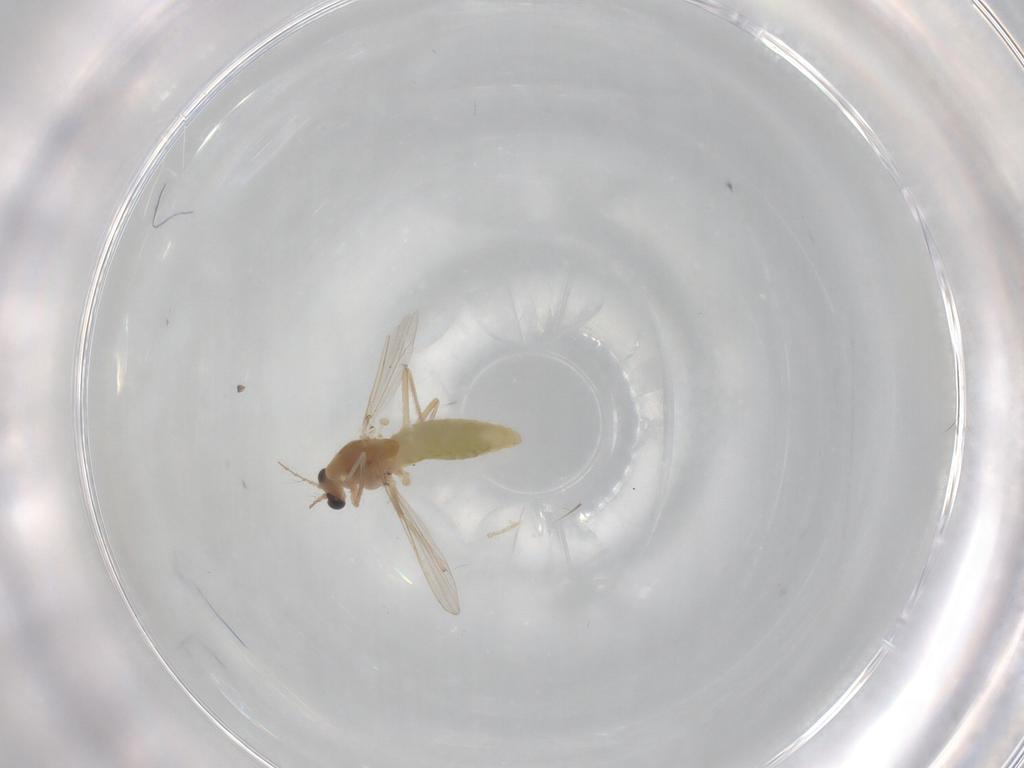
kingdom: Animalia
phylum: Arthropoda
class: Insecta
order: Diptera
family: Chironomidae
